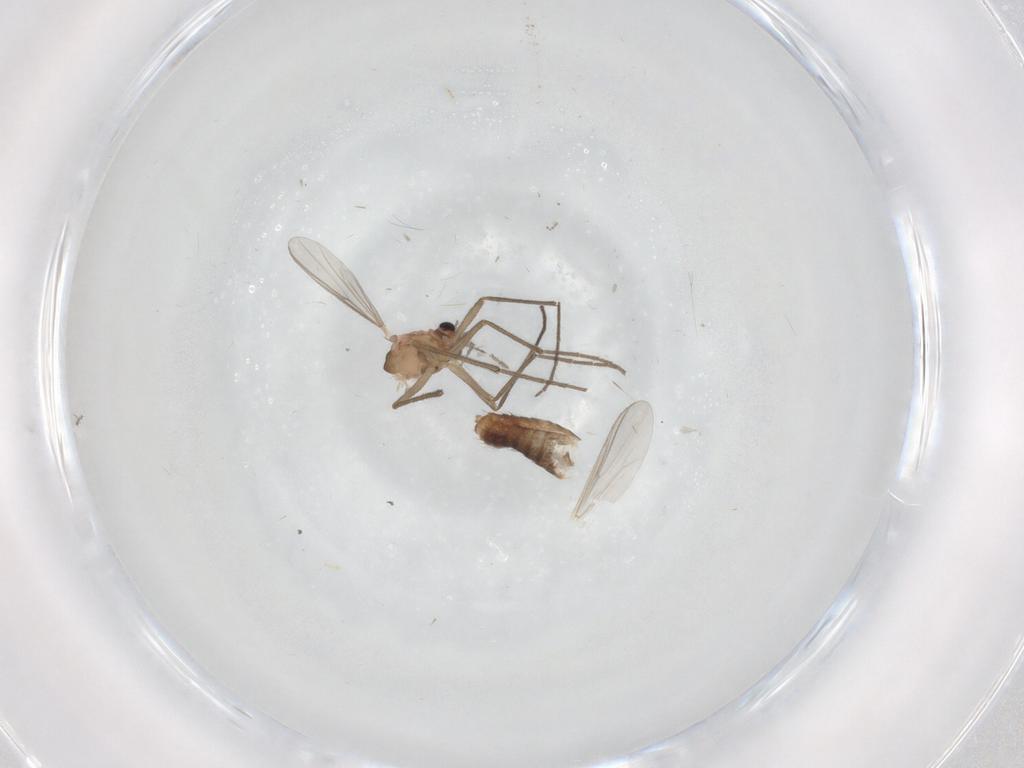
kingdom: Animalia
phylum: Arthropoda
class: Insecta
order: Diptera
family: Chironomidae
